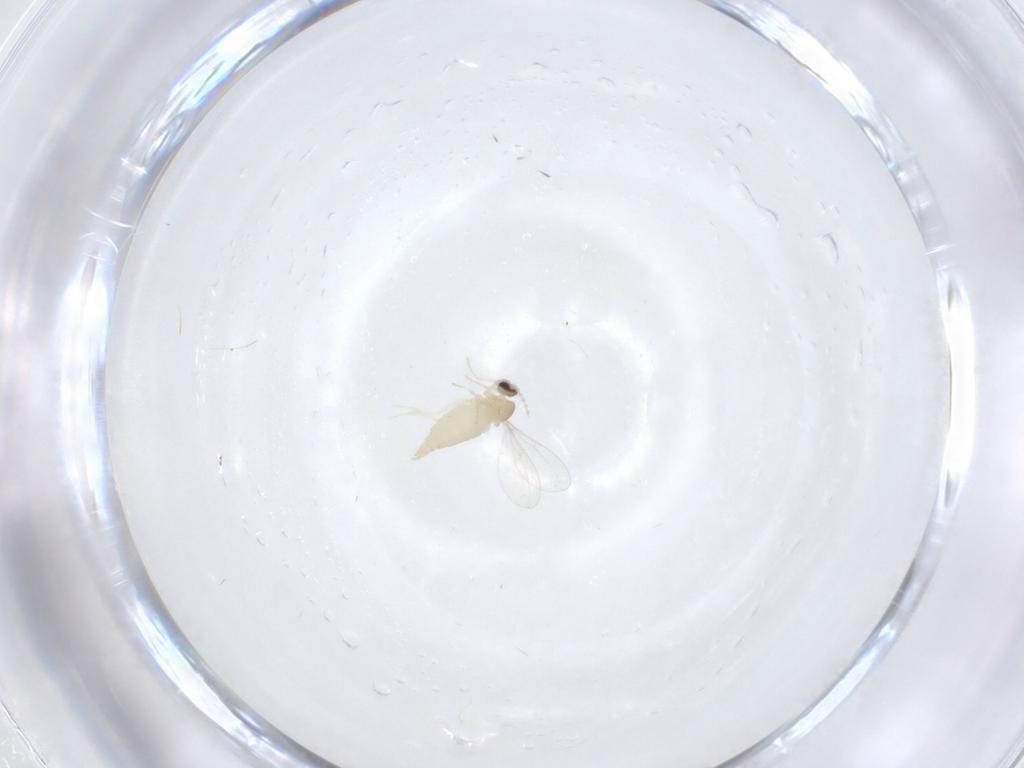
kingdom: Animalia
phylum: Arthropoda
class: Insecta
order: Diptera
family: Cecidomyiidae
